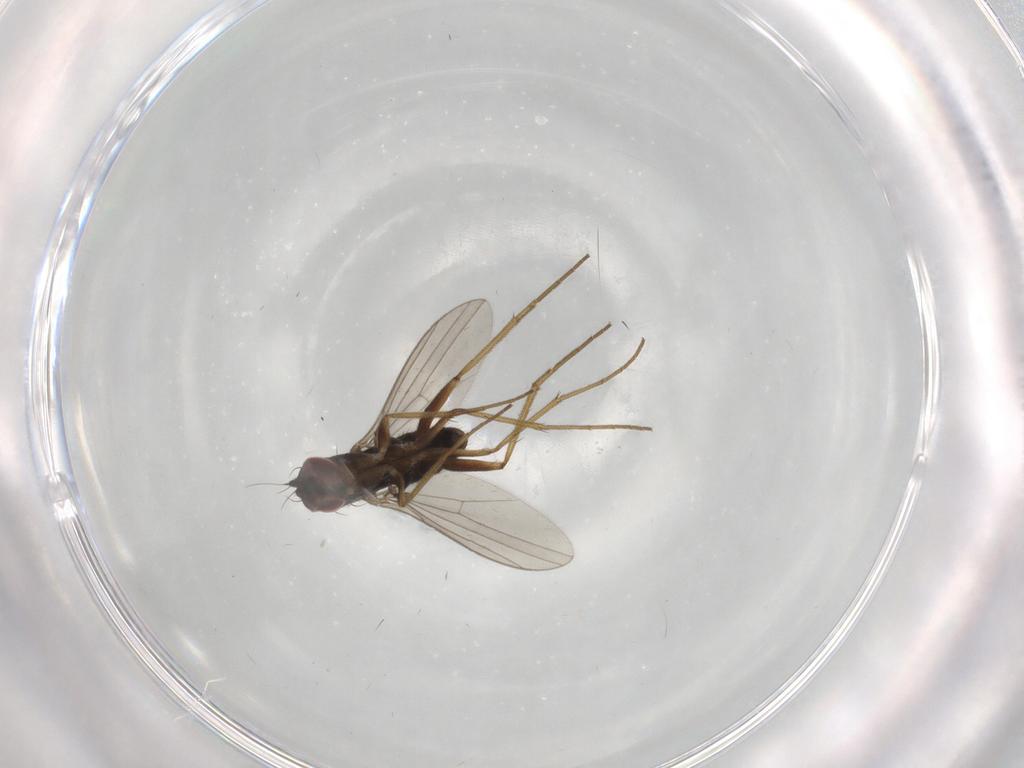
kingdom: Animalia
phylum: Arthropoda
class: Insecta
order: Diptera
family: Dolichopodidae
